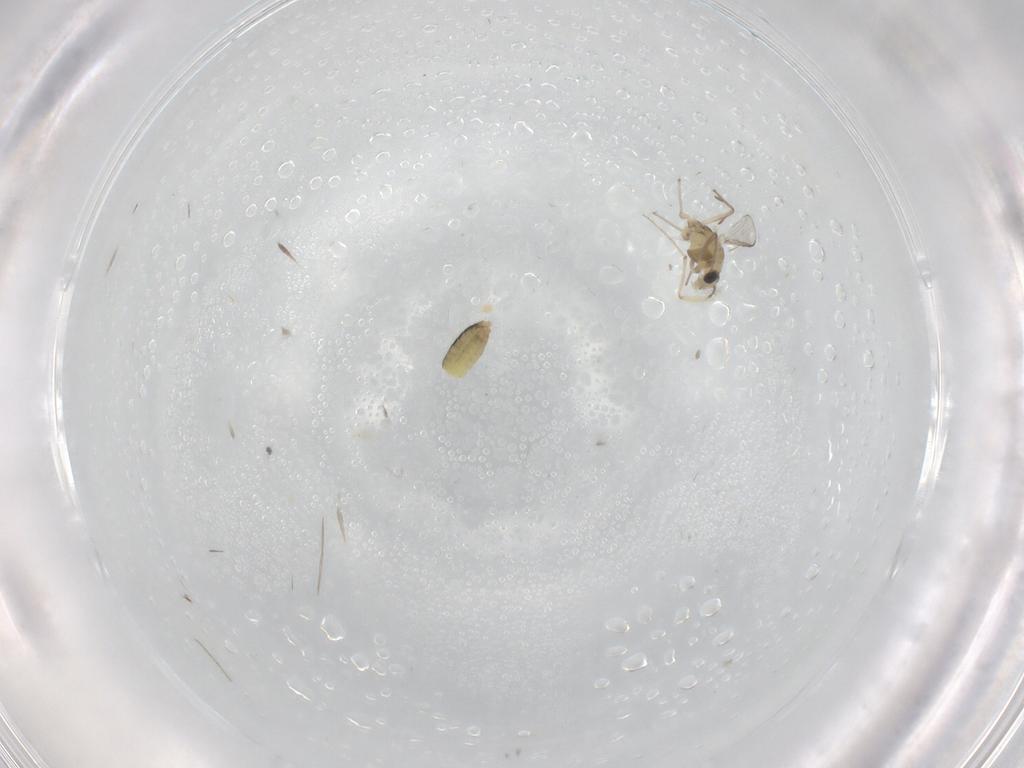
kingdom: Animalia
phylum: Arthropoda
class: Insecta
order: Diptera
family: Chironomidae
